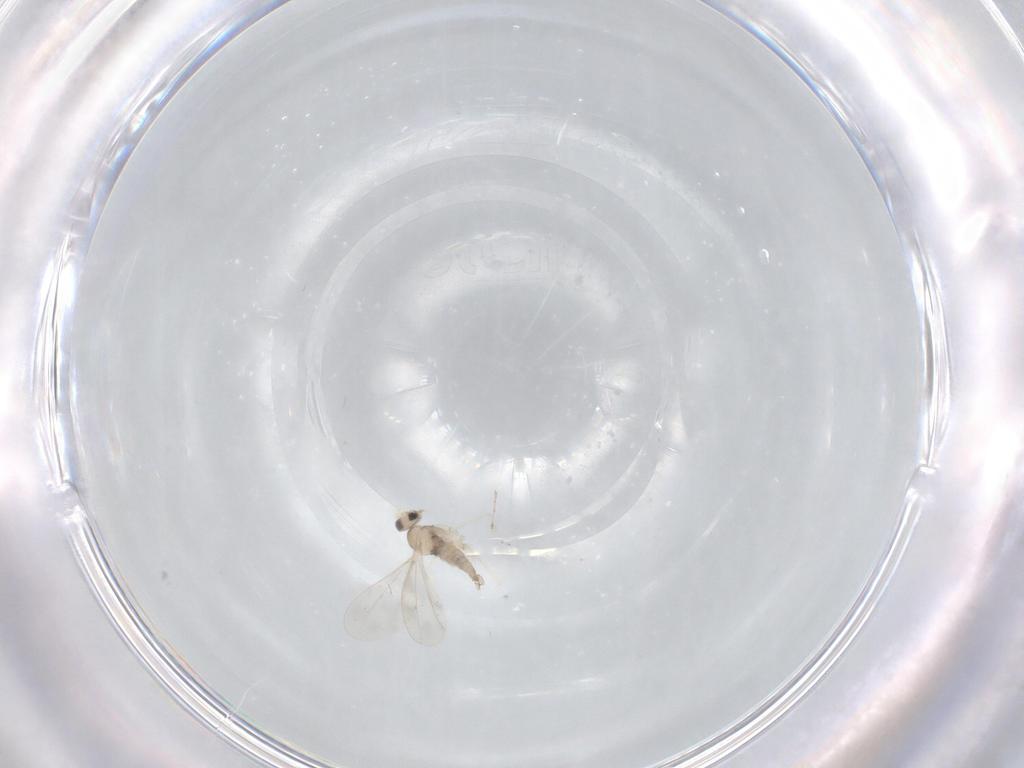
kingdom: Animalia
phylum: Arthropoda
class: Insecta
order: Diptera
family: Cecidomyiidae
